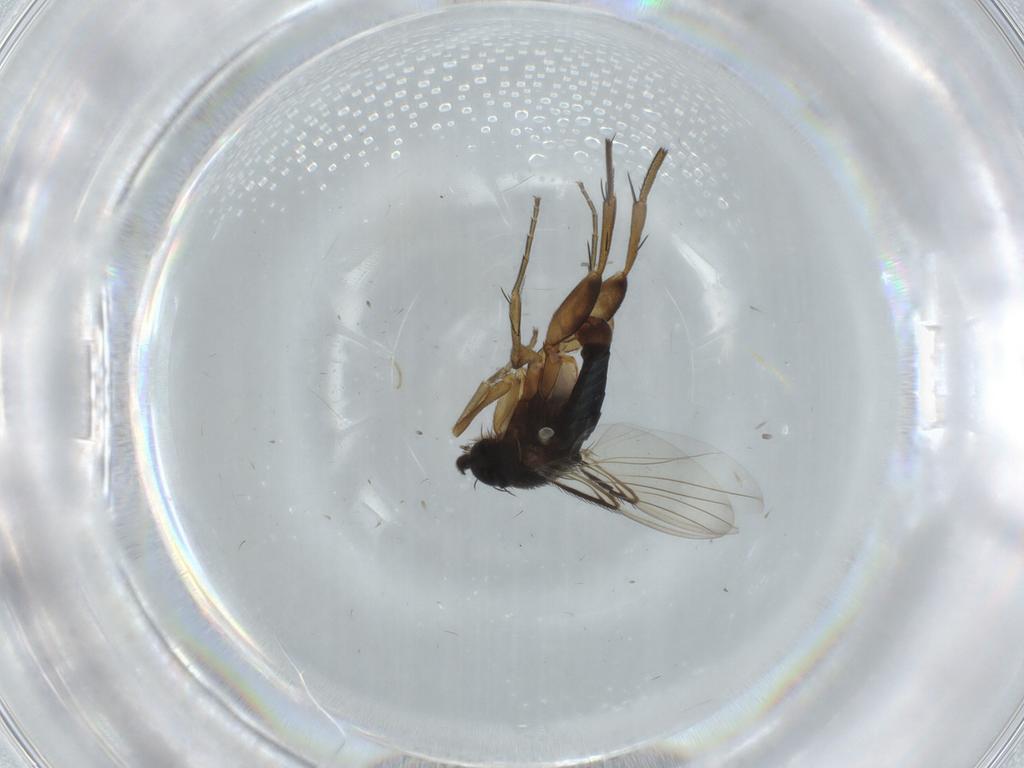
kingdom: Animalia
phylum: Arthropoda
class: Insecta
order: Diptera
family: Phoridae
